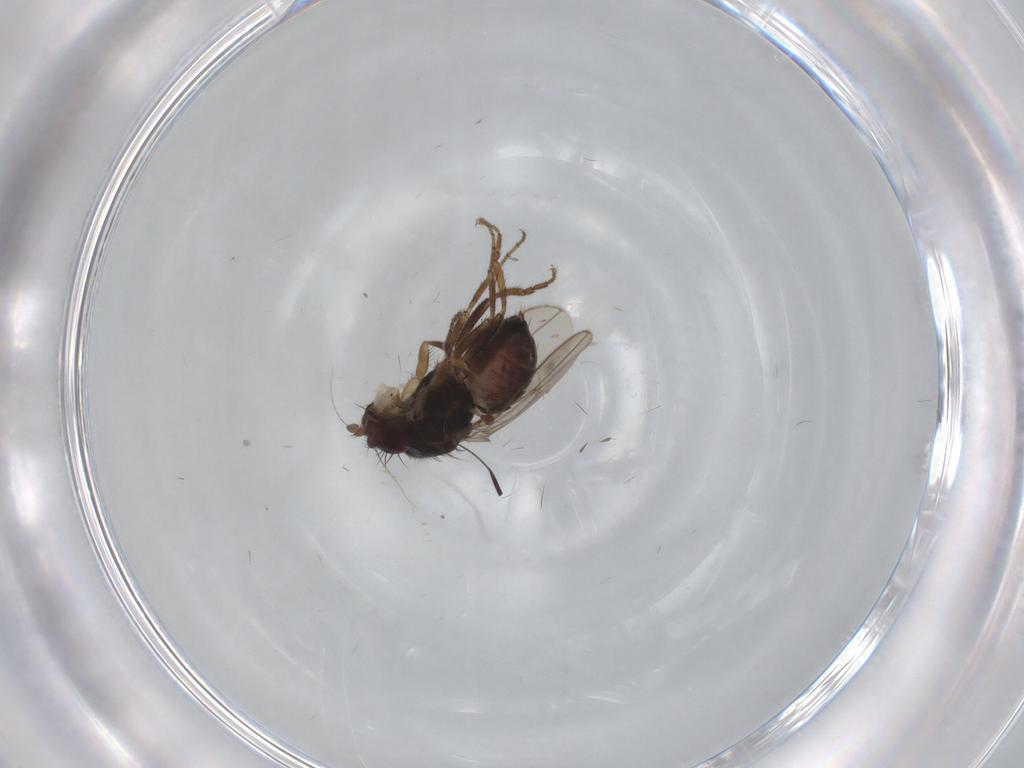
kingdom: Animalia
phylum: Arthropoda
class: Insecta
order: Diptera
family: Sphaeroceridae
